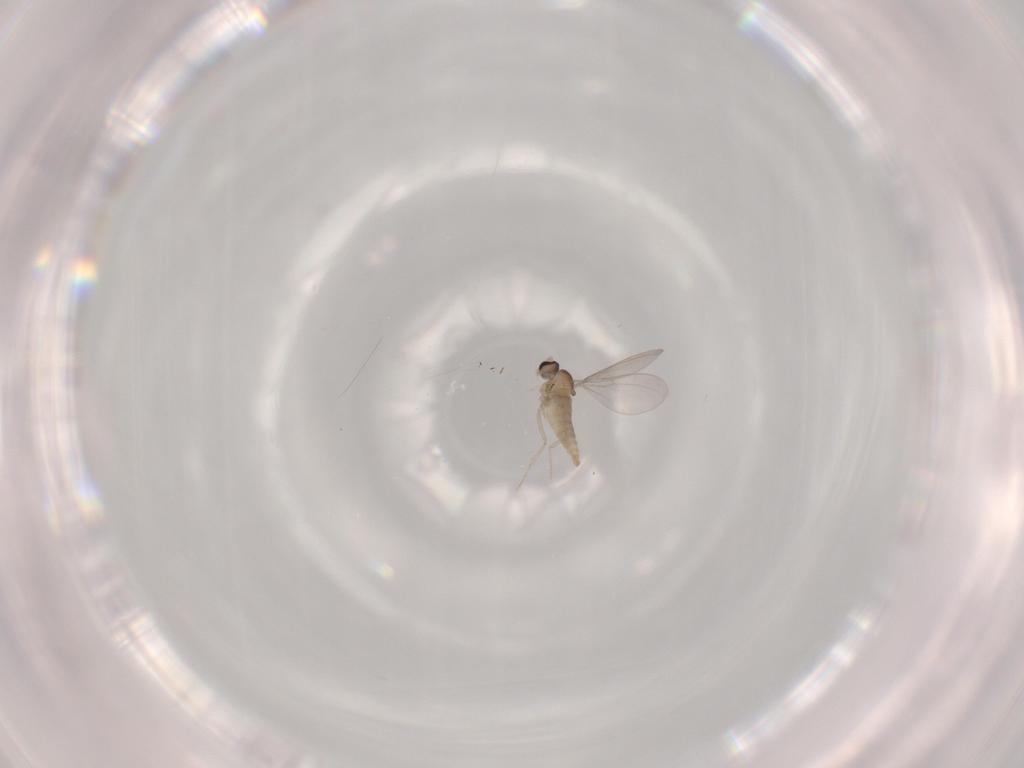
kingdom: Animalia
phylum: Arthropoda
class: Insecta
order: Diptera
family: Cecidomyiidae
